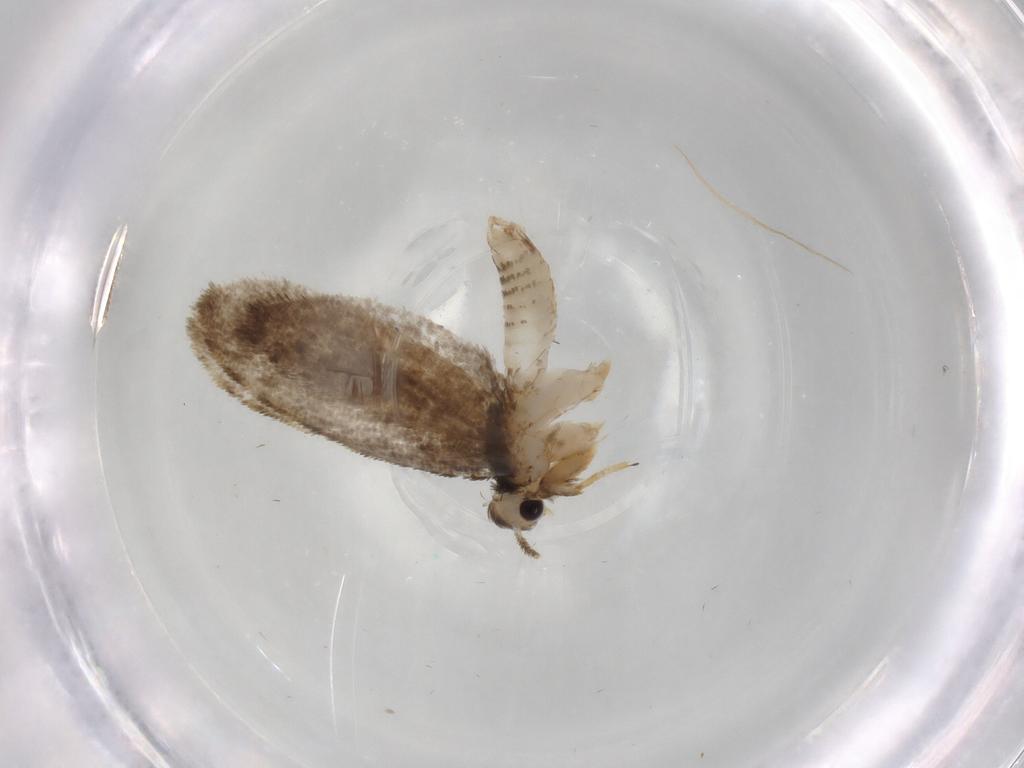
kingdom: Animalia
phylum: Arthropoda
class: Insecta
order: Lepidoptera
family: Psychidae
